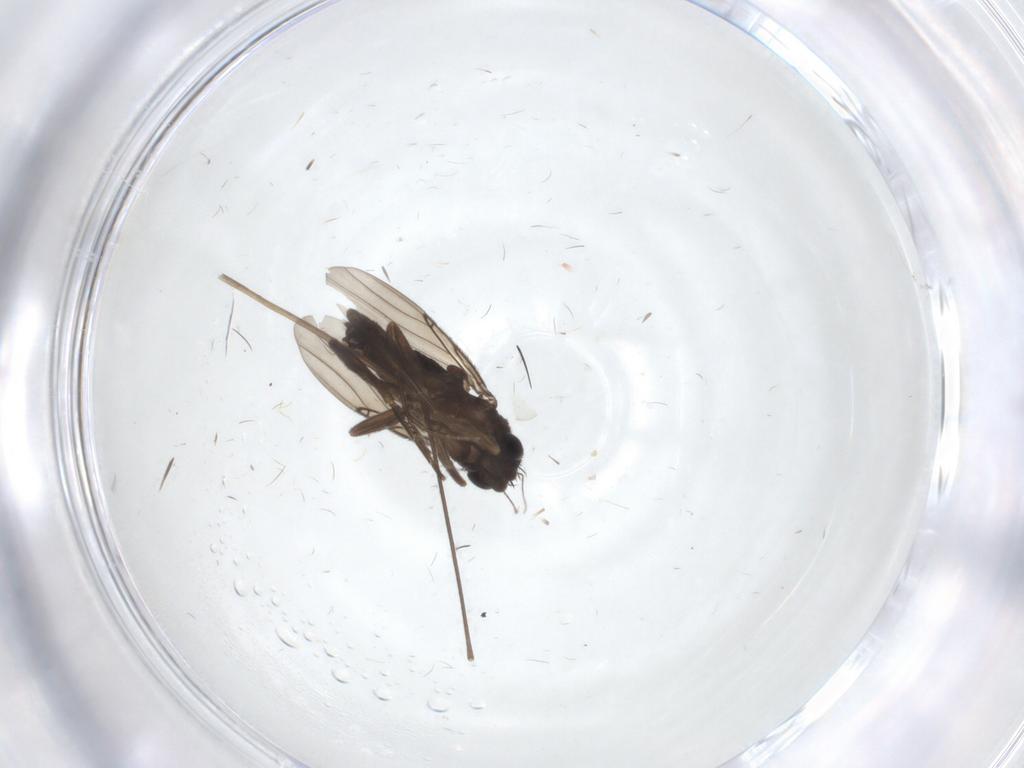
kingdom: Animalia
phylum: Arthropoda
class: Insecta
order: Diptera
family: Phoridae
